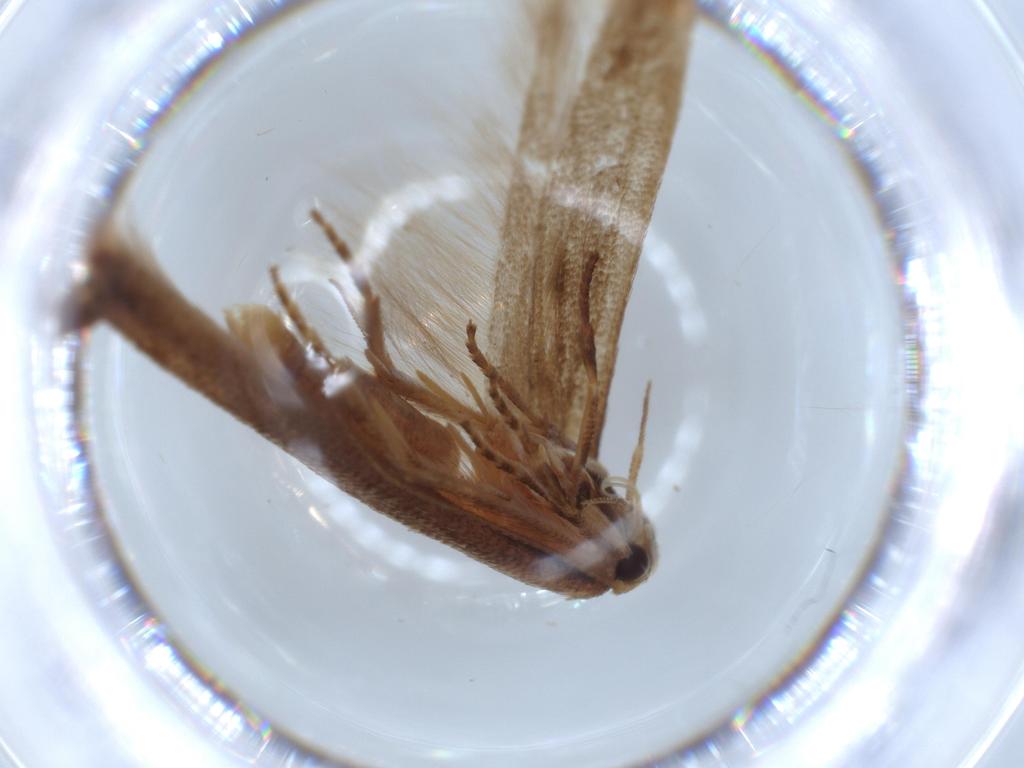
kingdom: Animalia
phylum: Arthropoda
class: Insecta
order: Lepidoptera
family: Stathmopodidae
